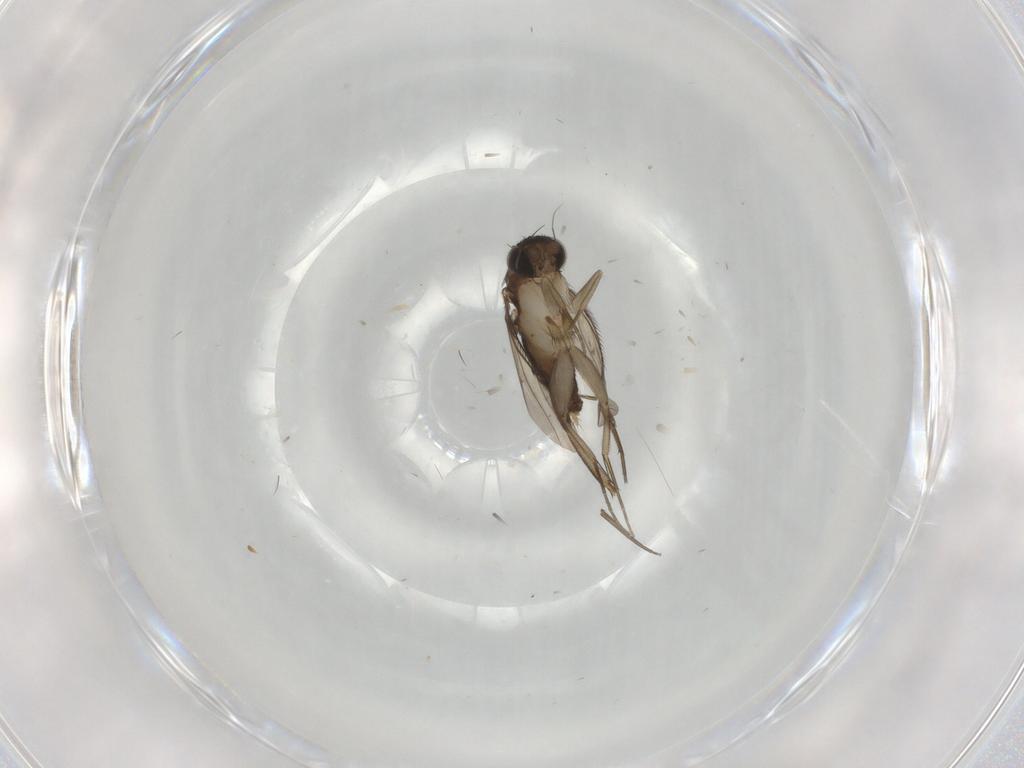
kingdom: Animalia
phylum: Arthropoda
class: Insecta
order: Diptera
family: Phoridae
